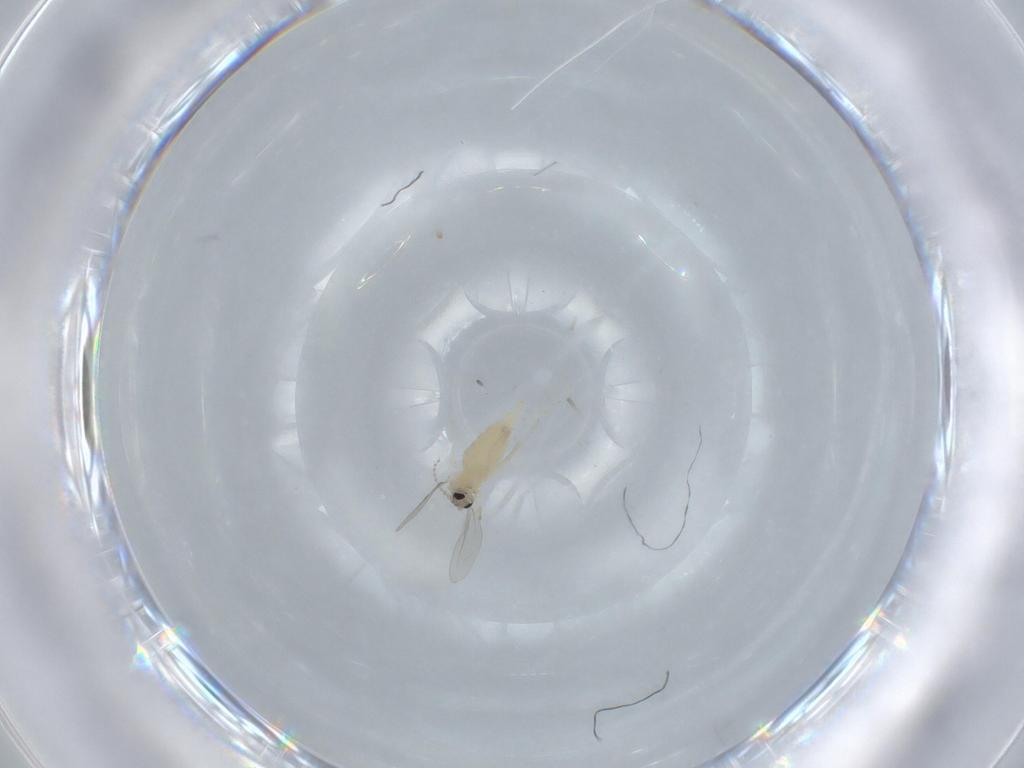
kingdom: Animalia
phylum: Arthropoda
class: Insecta
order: Diptera
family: Cecidomyiidae
